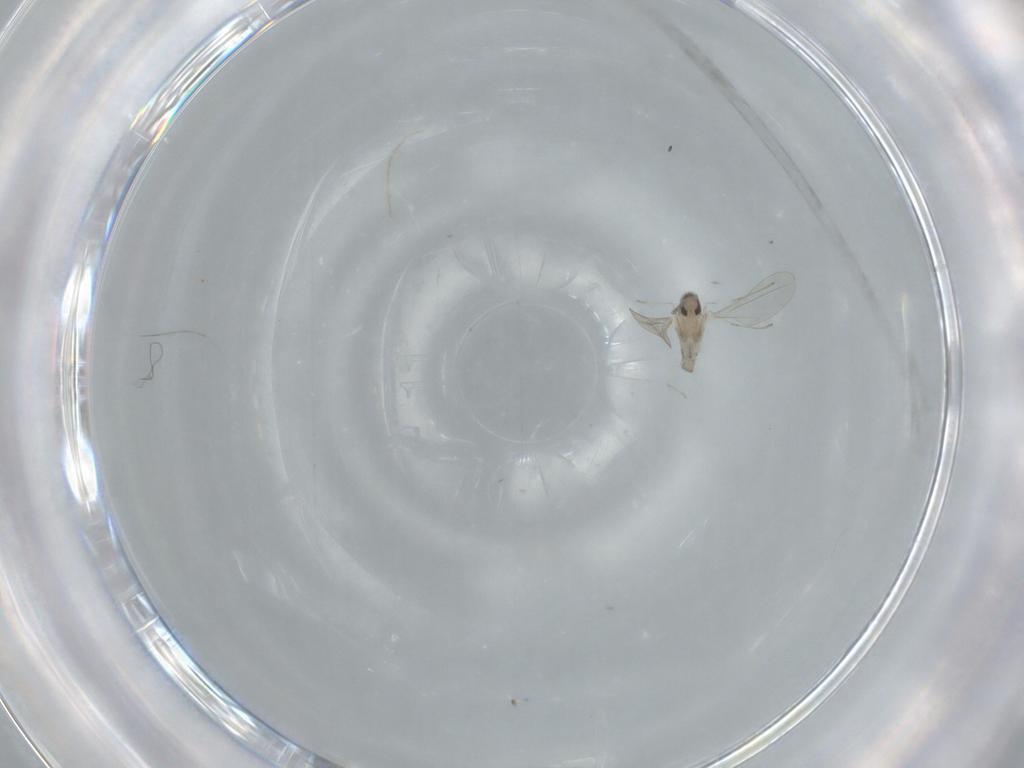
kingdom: Animalia
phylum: Arthropoda
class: Insecta
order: Diptera
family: Cecidomyiidae
